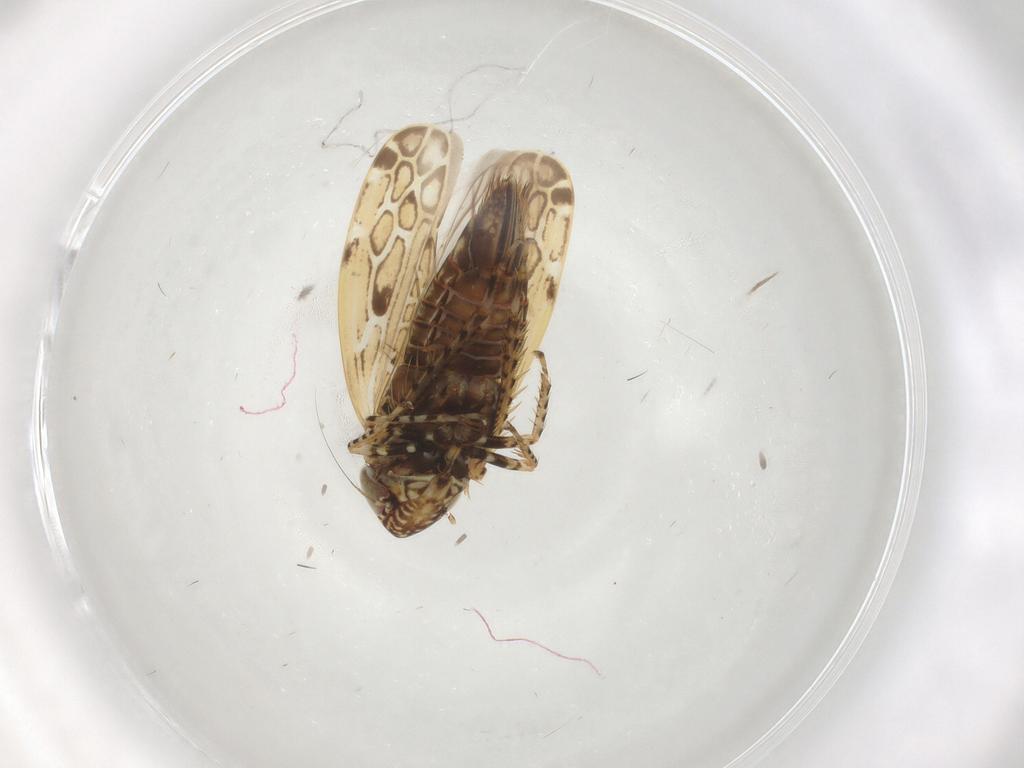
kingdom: Animalia
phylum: Arthropoda
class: Insecta
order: Hemiptera
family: Cicadellidae
